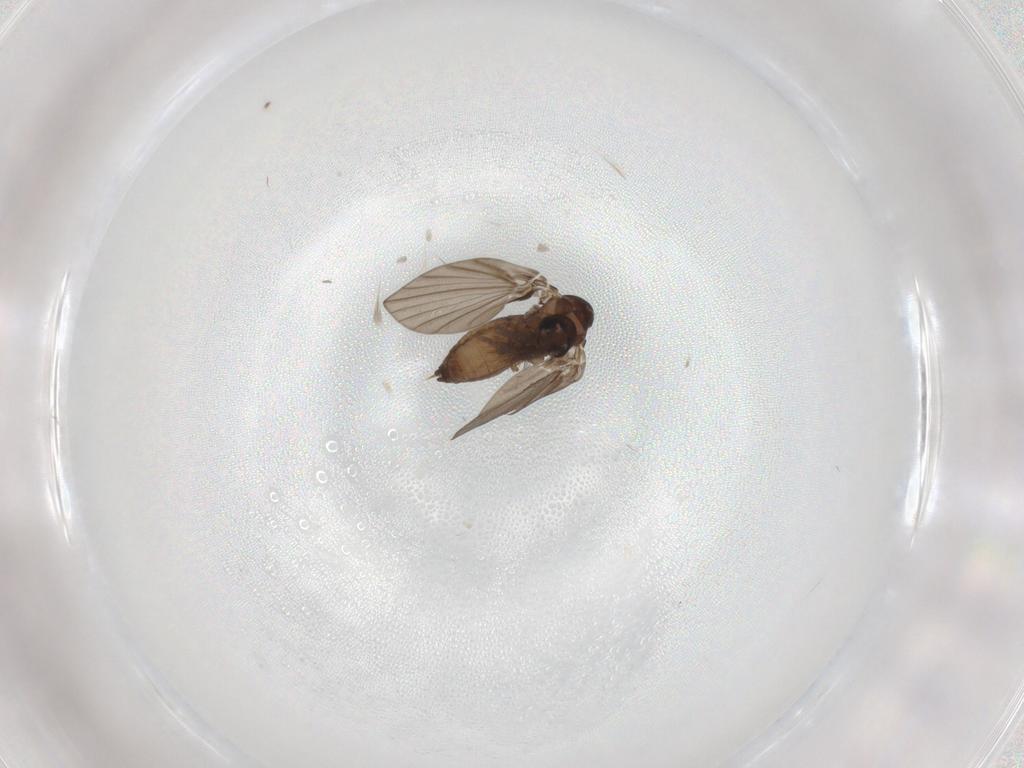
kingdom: Animalia
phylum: Arthropoda
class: Insecta
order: Diptera
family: Psychodidae
